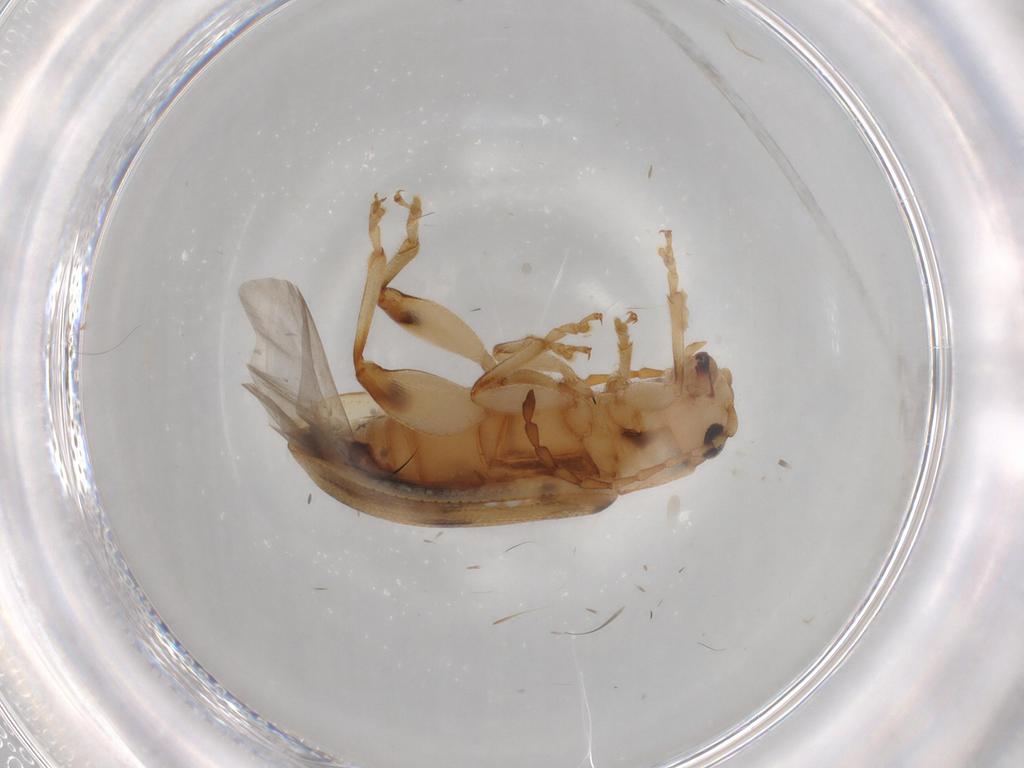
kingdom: Animalia
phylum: Arthropoda
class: Insecta
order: Coleoptera
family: Chrysomelidae
